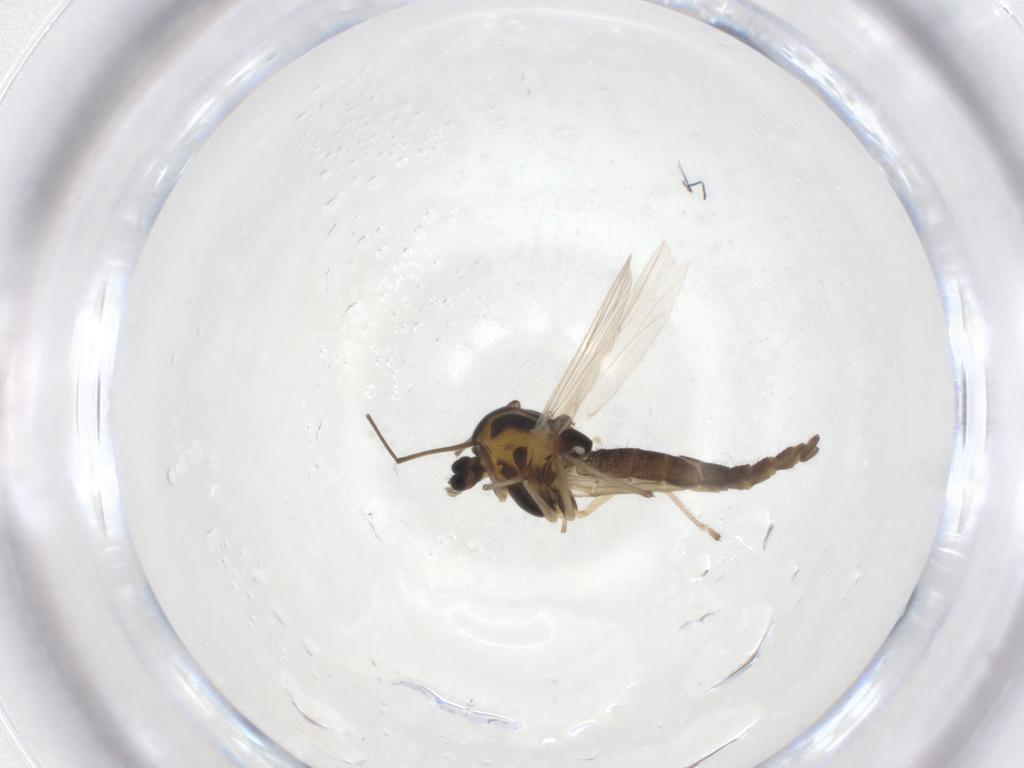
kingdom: Animalia
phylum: Arthropoda
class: Insecta
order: Diptera
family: Chironomidae
